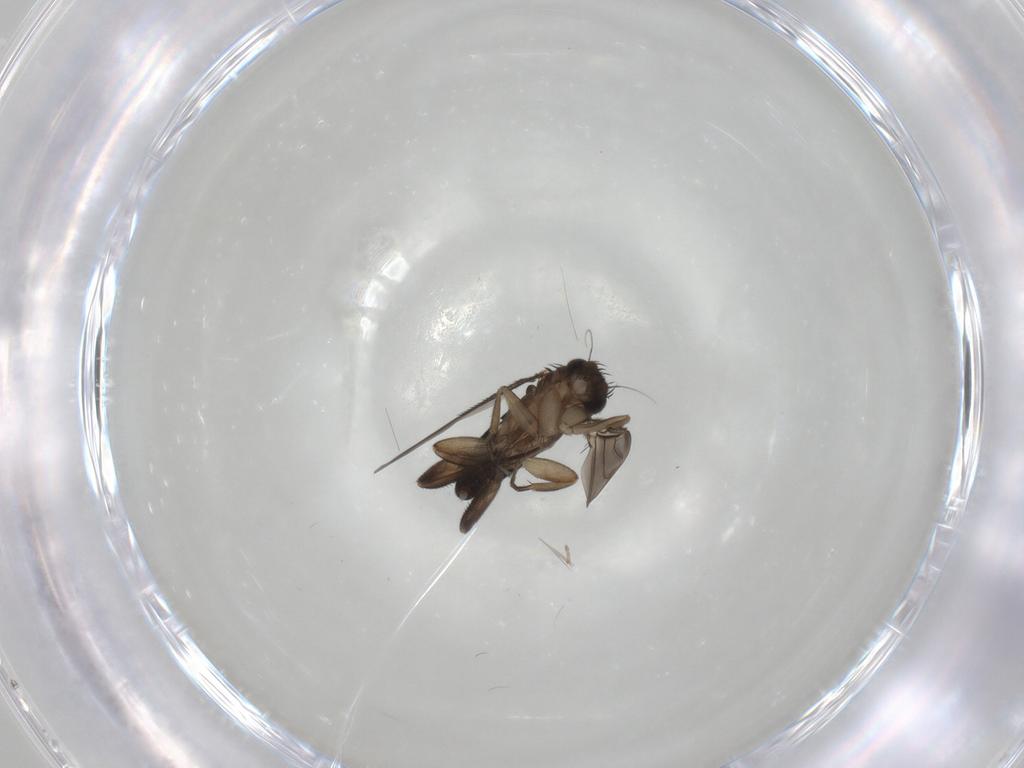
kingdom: Animalia
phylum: Arthropoda
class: Insecta
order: Diptera
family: Phoridae
